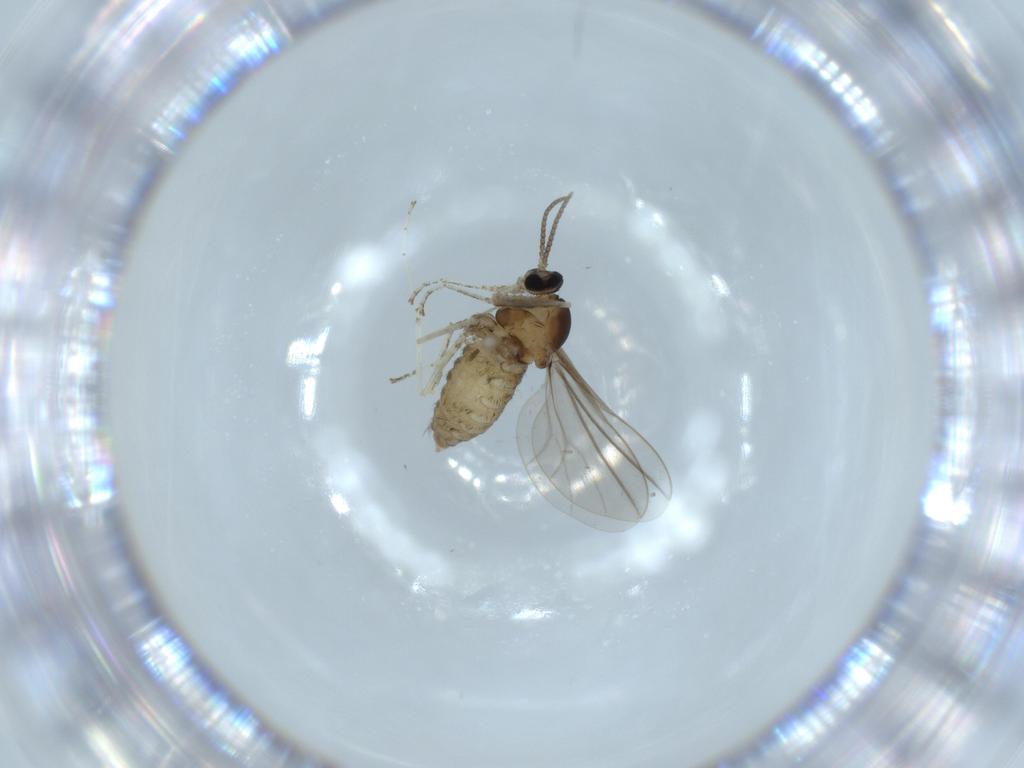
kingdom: Animalia
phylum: Arthropoda
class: Insecta
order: Diptera
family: Cecidomyiidae
